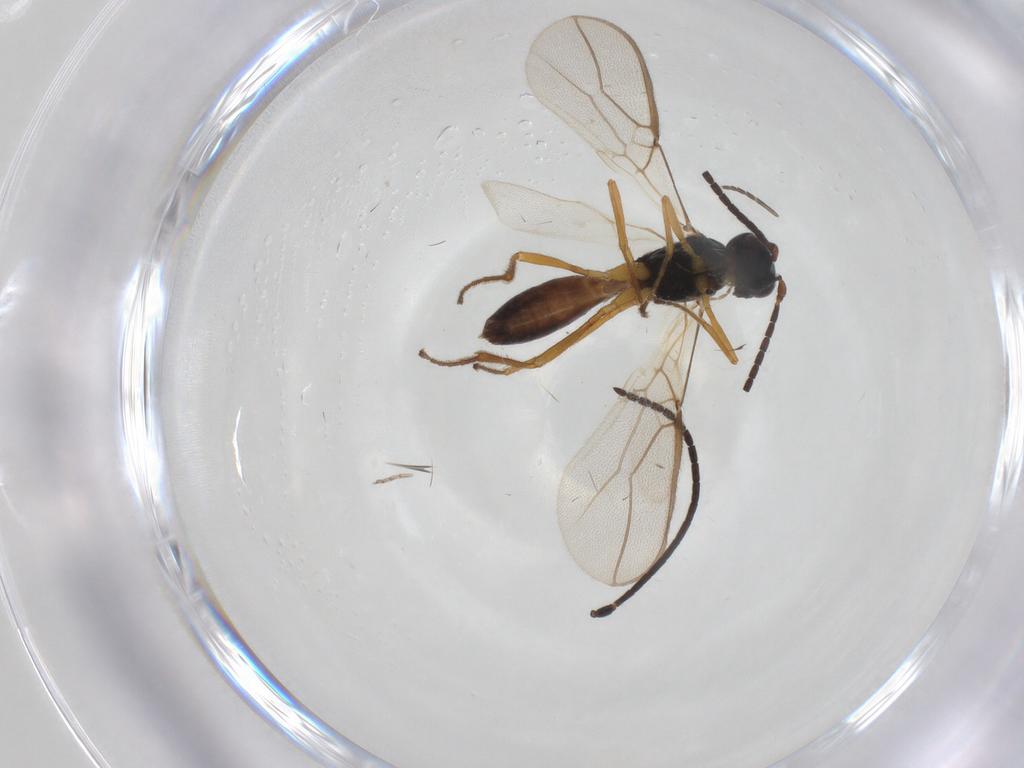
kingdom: Animalia
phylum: Arthropoda
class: Insecta
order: Hymenoptera
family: Braconidae
